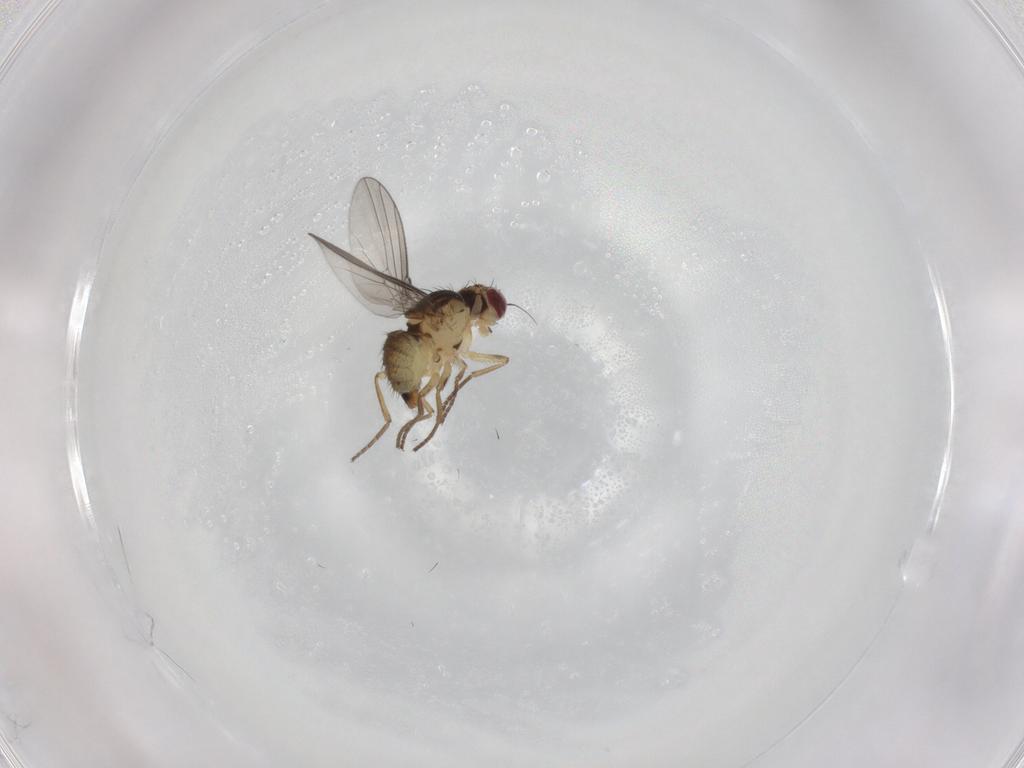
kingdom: Animalia
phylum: Arthropoda
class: Insecta
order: Diptera
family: Agromyzidae
